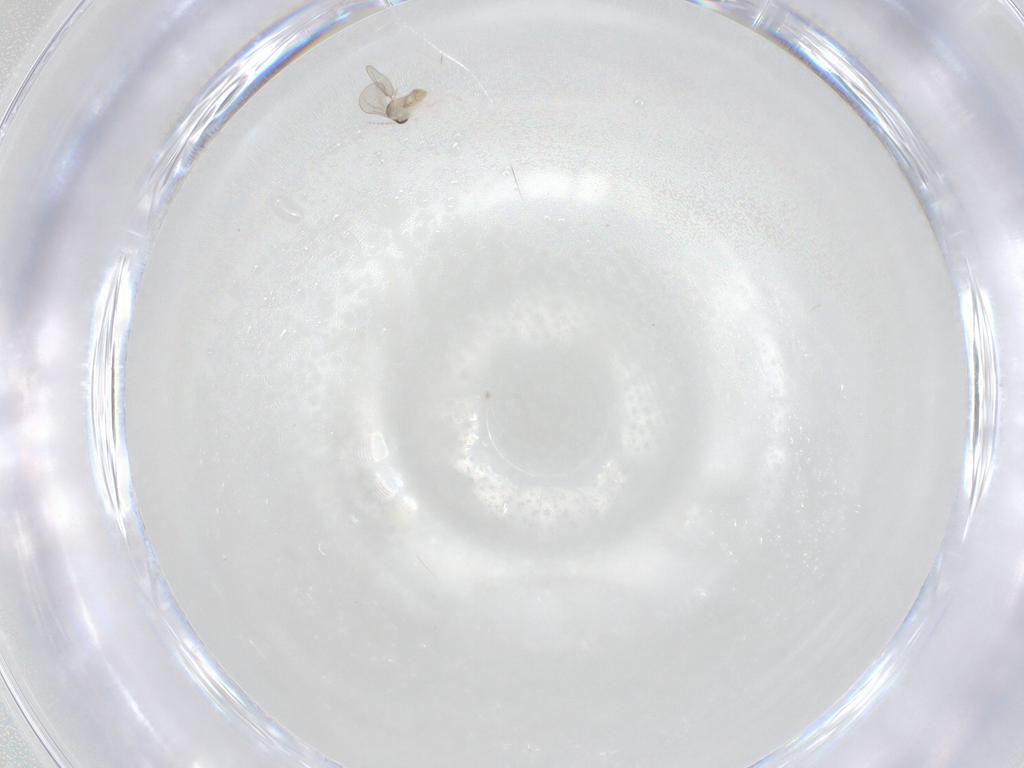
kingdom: Animalia
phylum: Arthropoda
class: Insecta
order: Diptera
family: Cecidomyiidae
